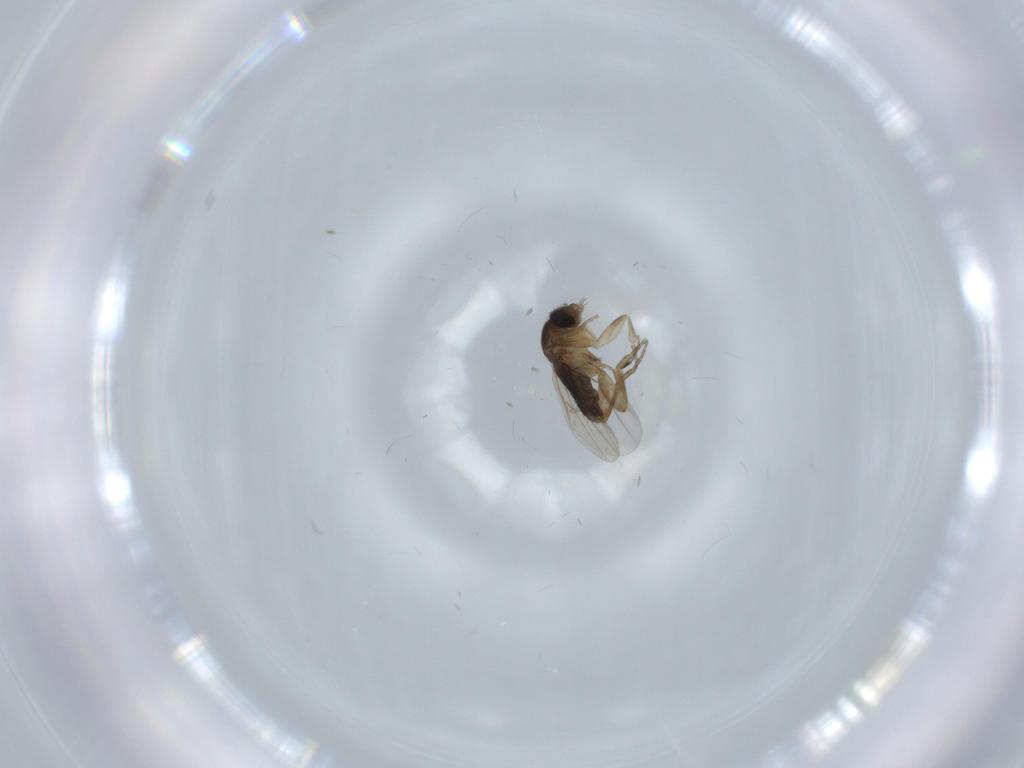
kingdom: Animalia
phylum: Arthropoda
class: Insecta
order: Diptera
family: Phoridae
